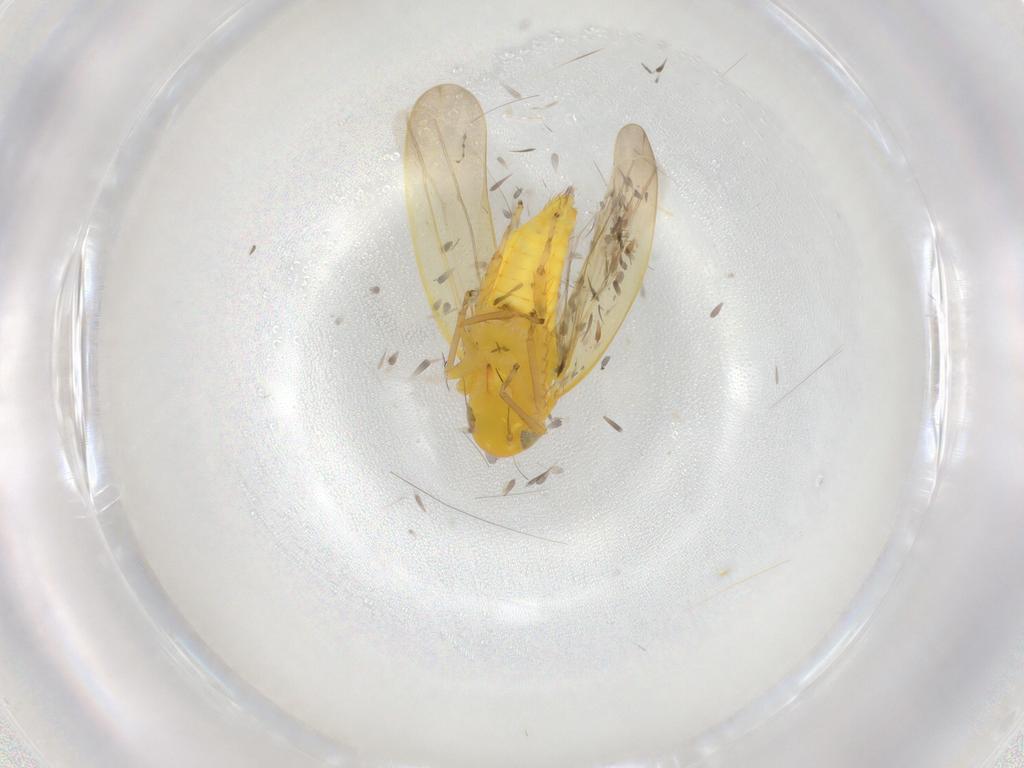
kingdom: Animalia
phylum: Arthropoda
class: Insecta
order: Hemiptera
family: Cicadellidae
